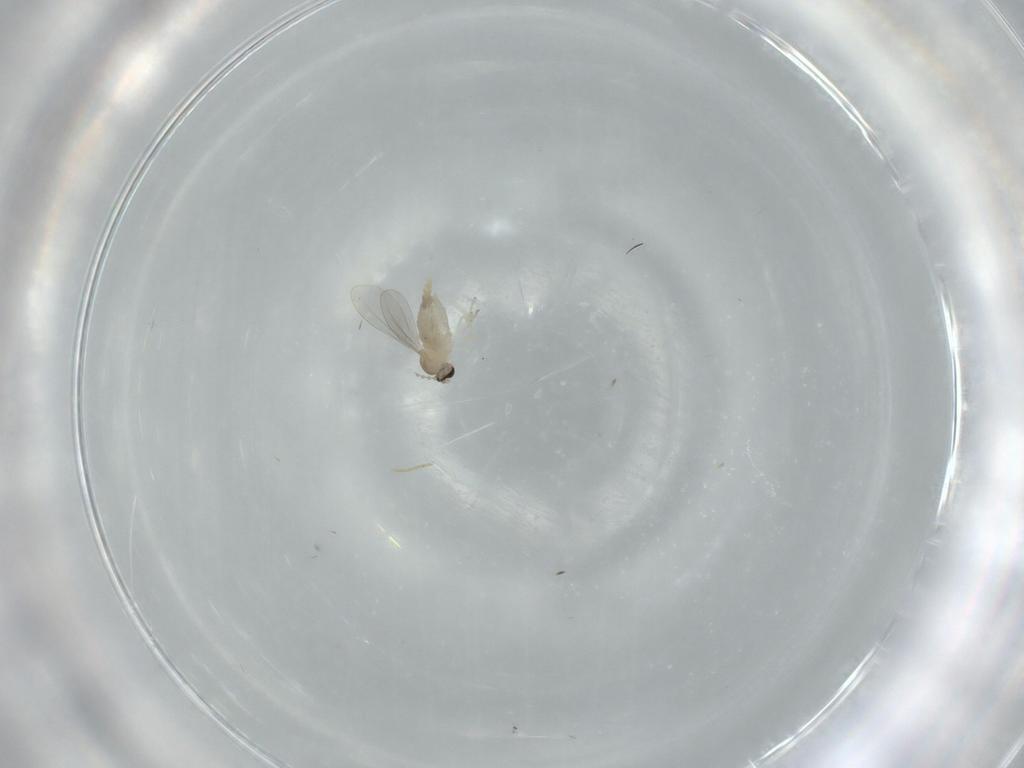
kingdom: Animalia
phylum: Arthropoda
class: Insecta
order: Diptera
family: Cecidomyiidae
